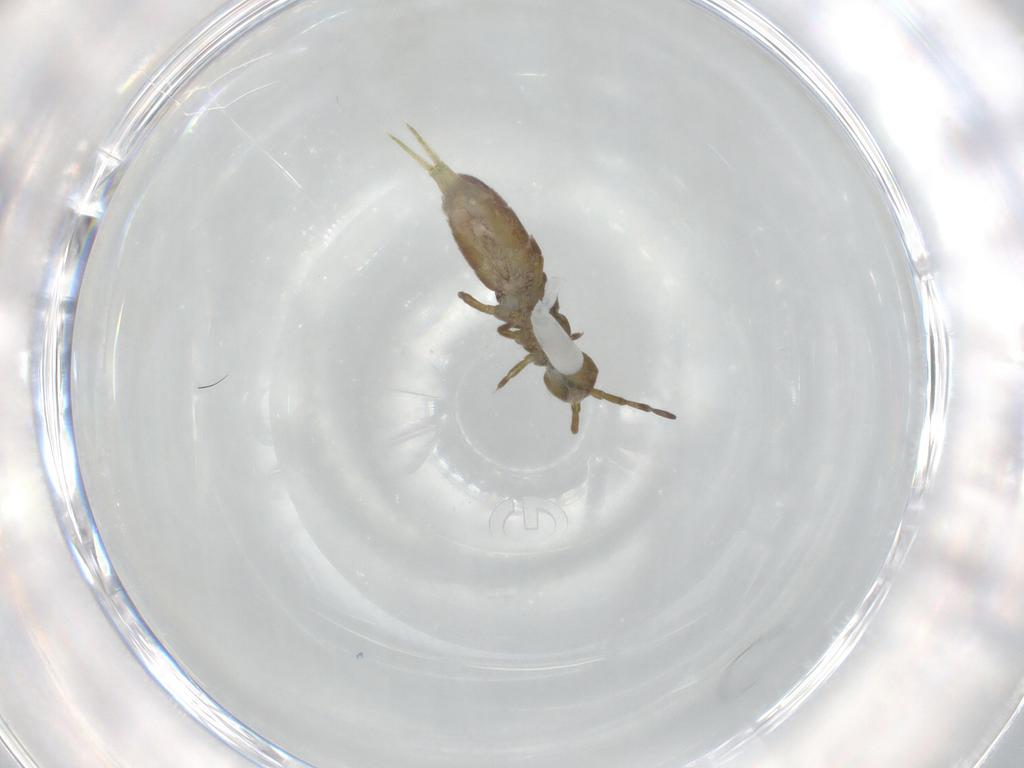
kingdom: Animalia
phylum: Arthropoda
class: Collembola
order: Entomobryomorpha
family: Isotomidae
